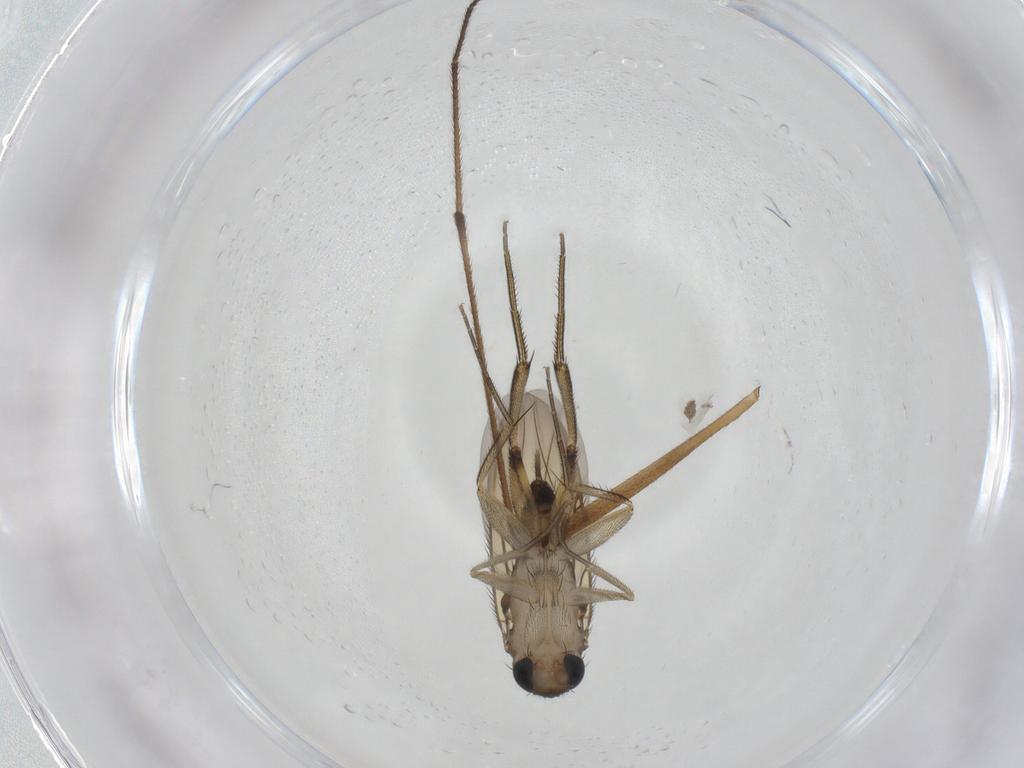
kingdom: Animalia
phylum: Arthropoda
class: Insecta
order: Diptera
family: Sciaridae
